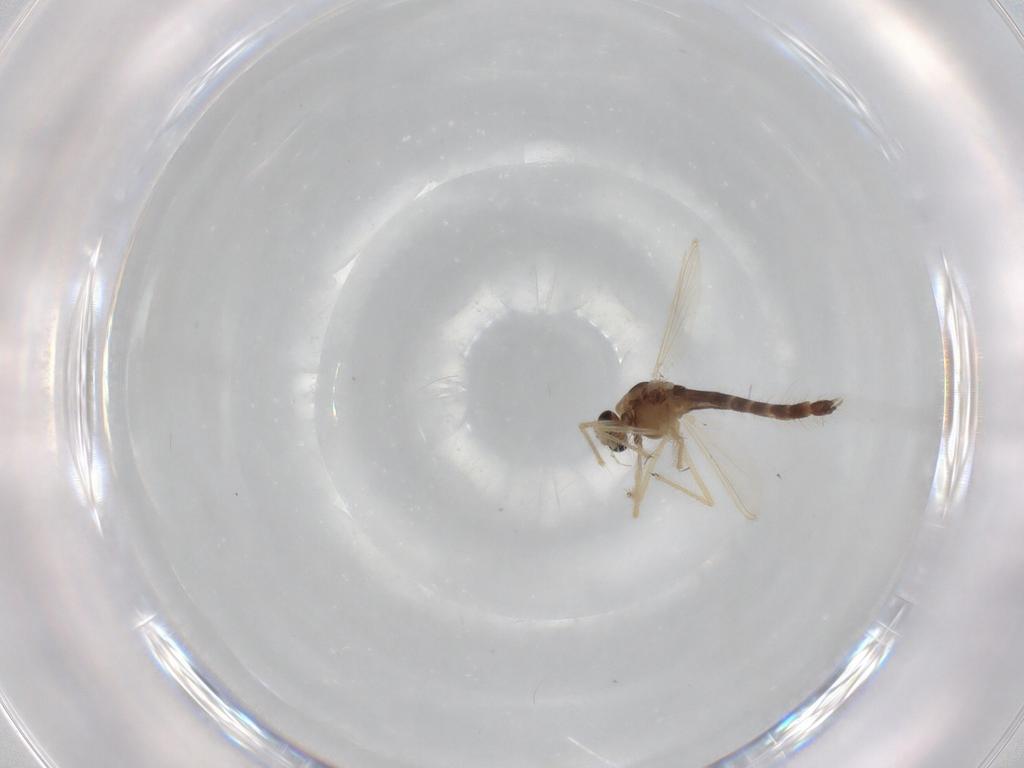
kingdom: Animalia
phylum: Arthropoda
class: Insecta
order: Diptera
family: Chironomidae
